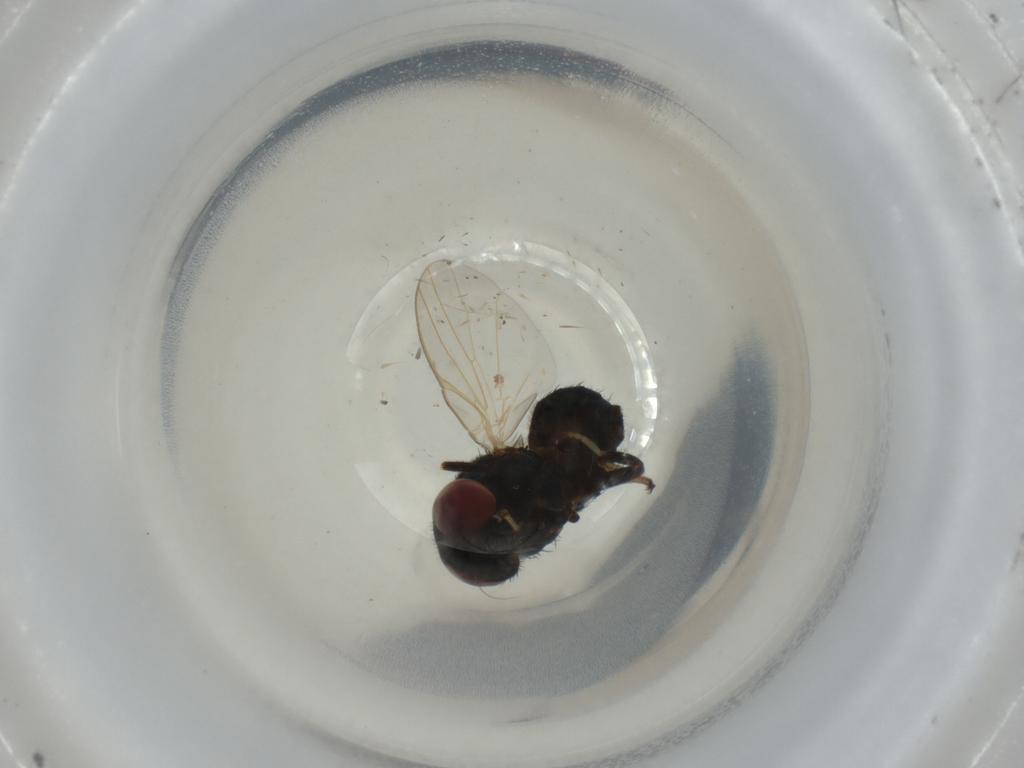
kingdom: Animalia
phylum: Arthropoda
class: Insecta
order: Diptera
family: Lonchaeidae
